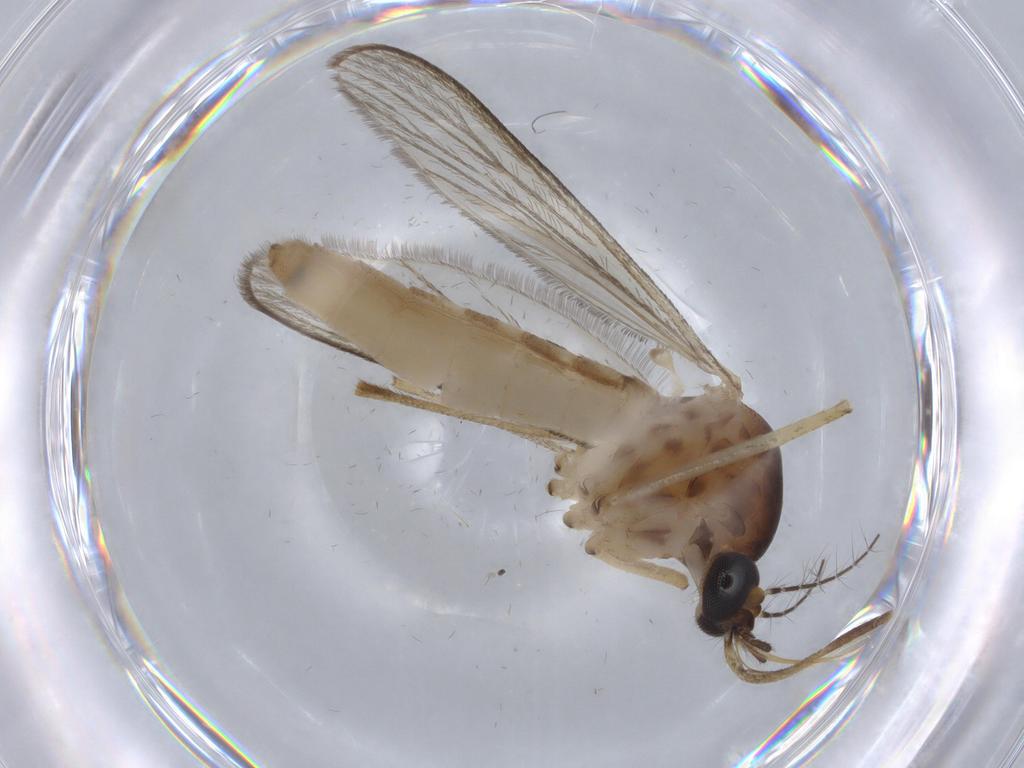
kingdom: Animalia
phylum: Arthropoda
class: Insecta
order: Diptera
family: Culicidae
